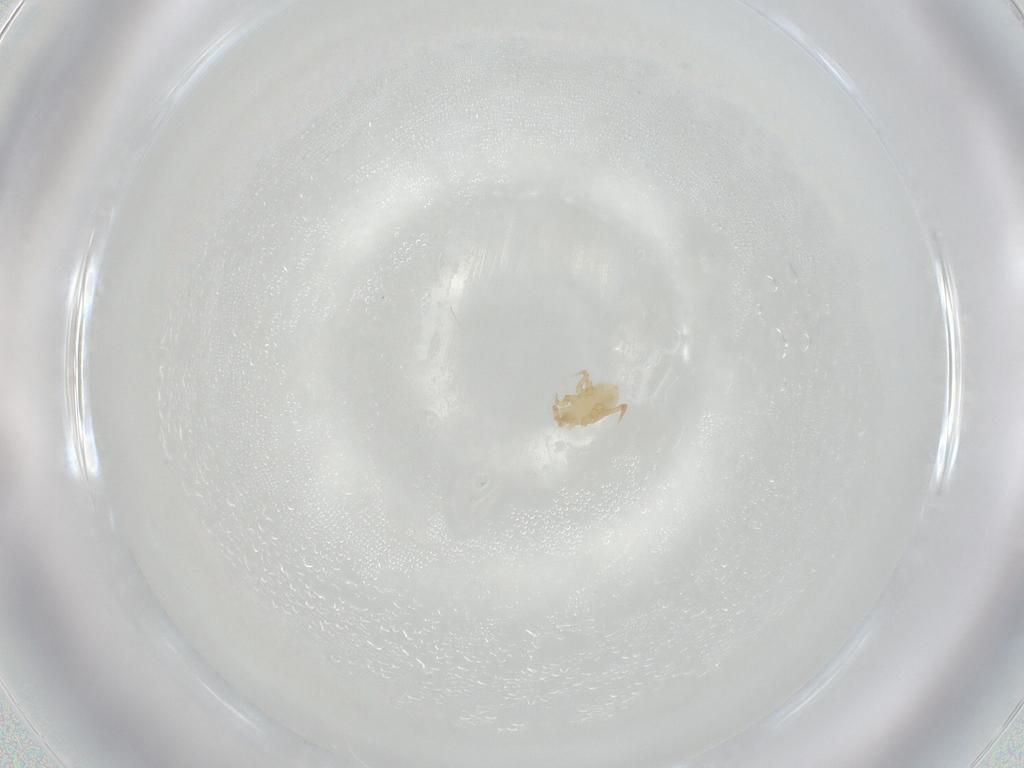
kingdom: Animalia
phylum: Arthropoda
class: Arachnida
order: Mesostigmata
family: Parasitidae
